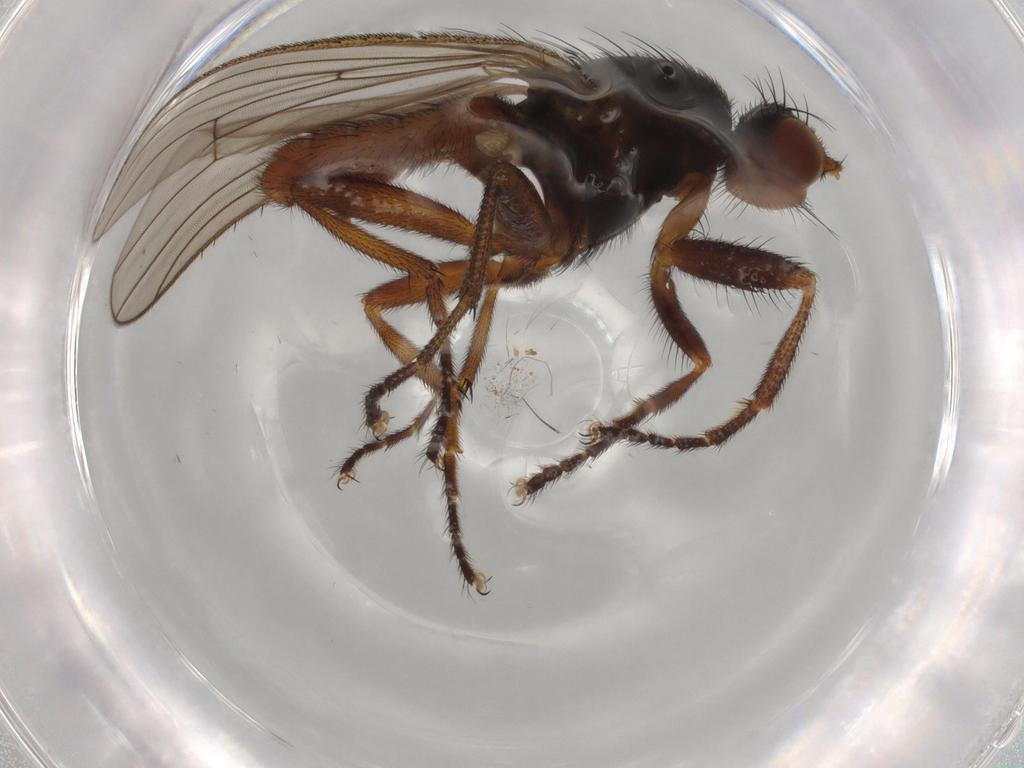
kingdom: Animalia
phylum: Arthropoda
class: Insecta
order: Diptera
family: Heleomyzidae
